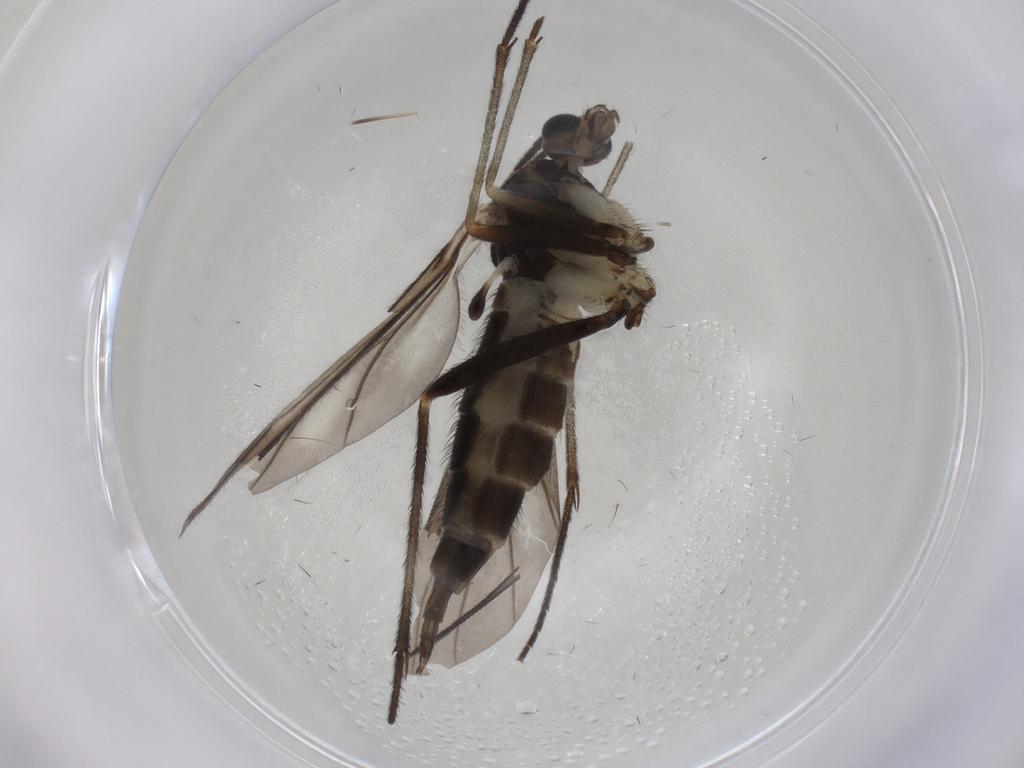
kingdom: Animalia
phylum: Arthropoda
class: Insecta
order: Diptera
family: Sciaridae
